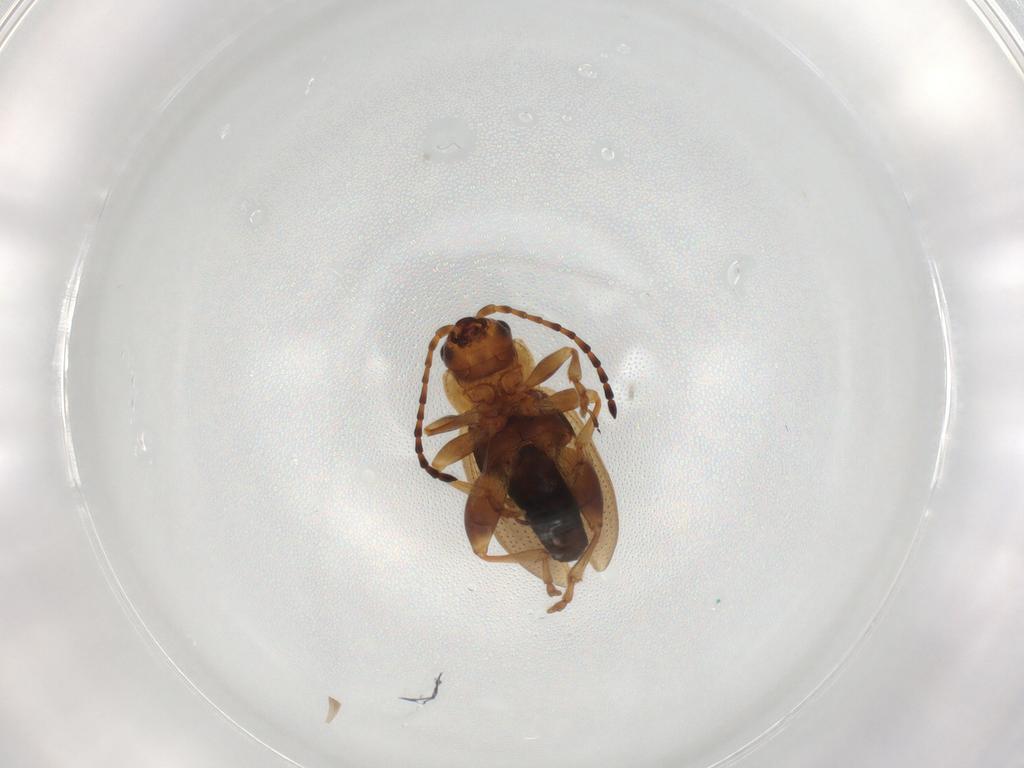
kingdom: Animalia
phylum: Arthropoda
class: Insecta
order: Coleoptera
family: Chrysomelidae
